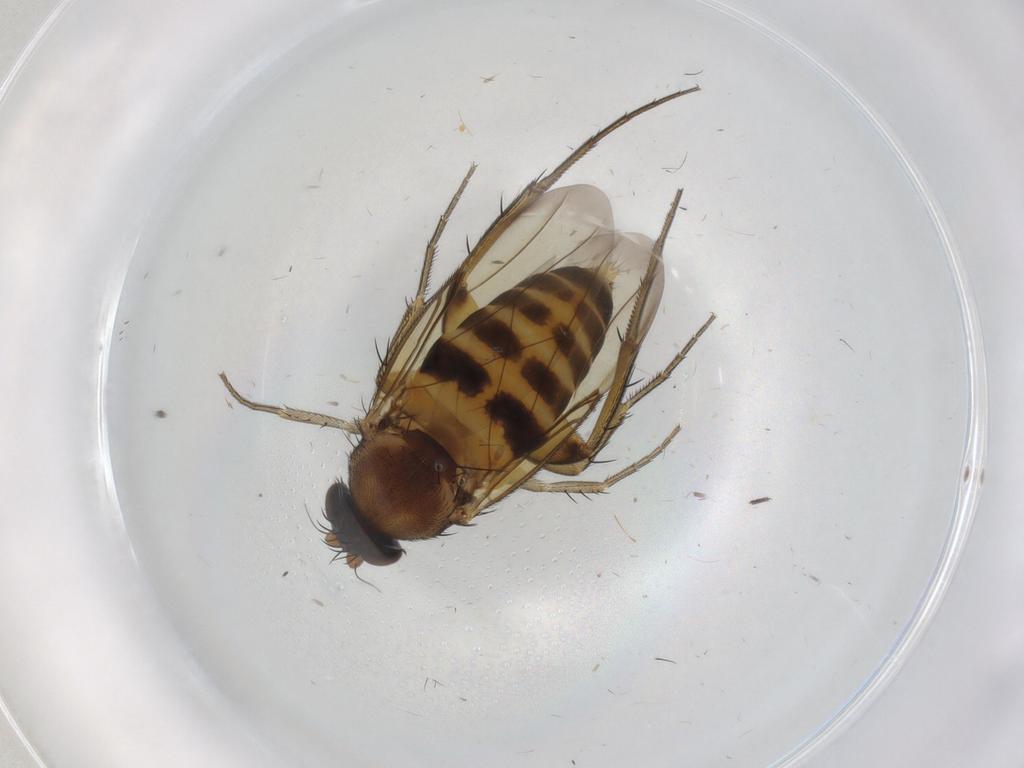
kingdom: Animalia
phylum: Arthropoda
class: Insecta
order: Diptera
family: Phoridae
